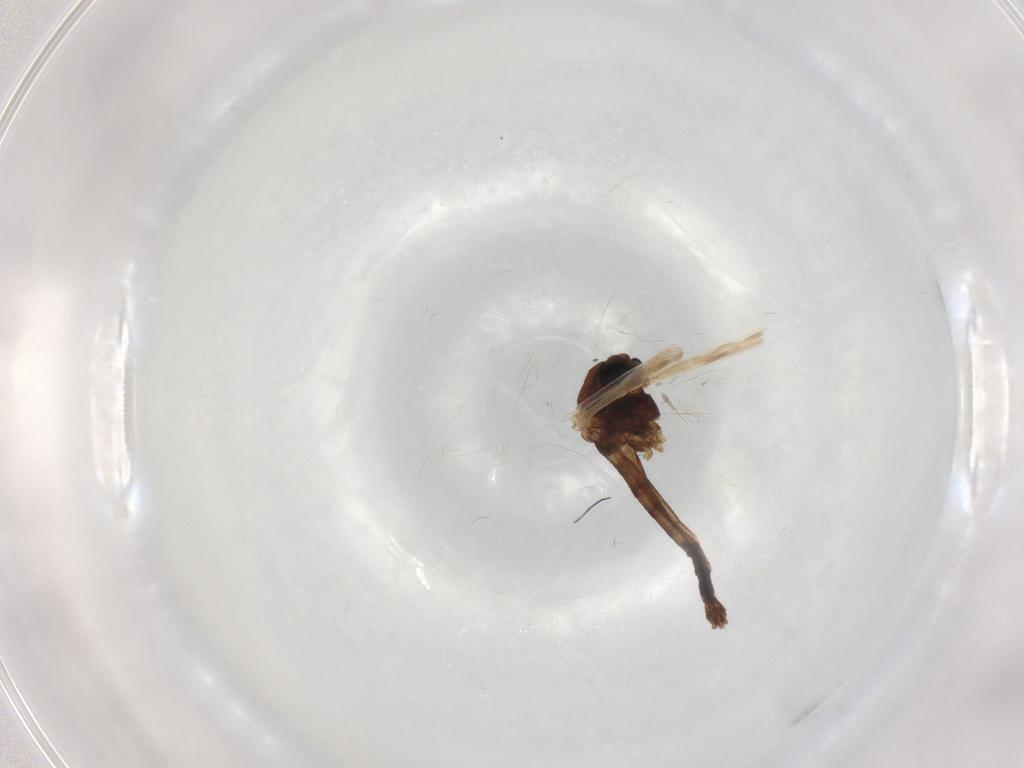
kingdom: Animalia
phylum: Arthropoda
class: Insecta
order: Diptera
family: Chironomidae
